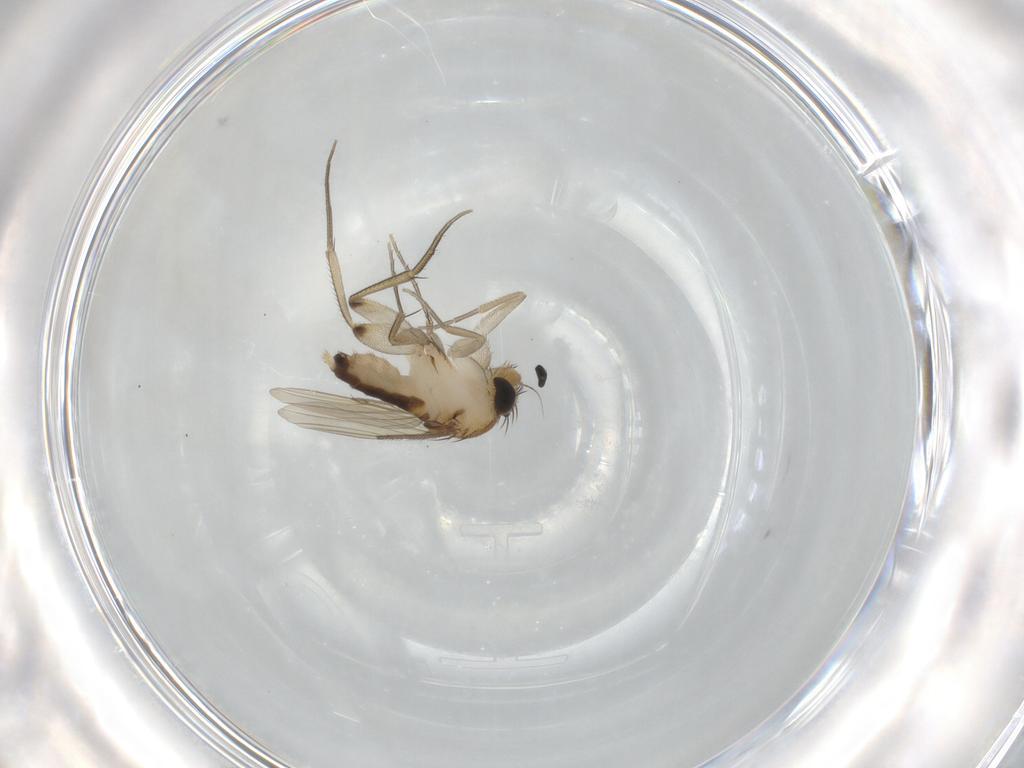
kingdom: Animalia
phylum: Arthropoda
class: Insecta
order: Diptera
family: Phoridae
